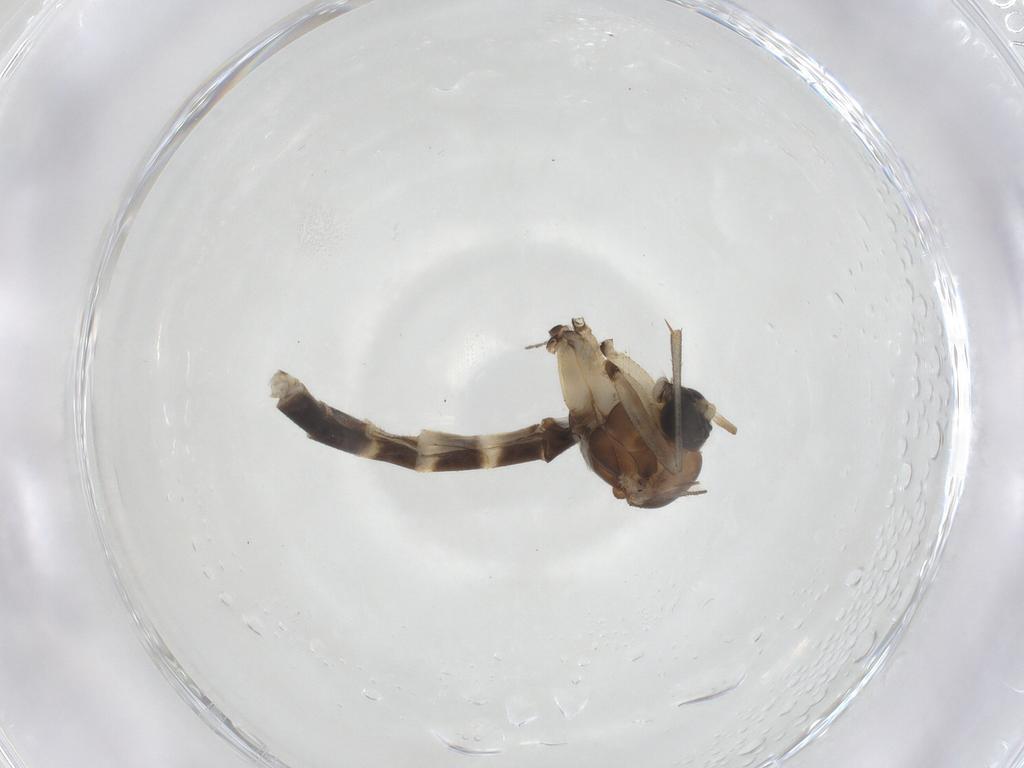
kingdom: Animalia
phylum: Arthropoda
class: Insecta
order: Diptera
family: Mycetophilidae
